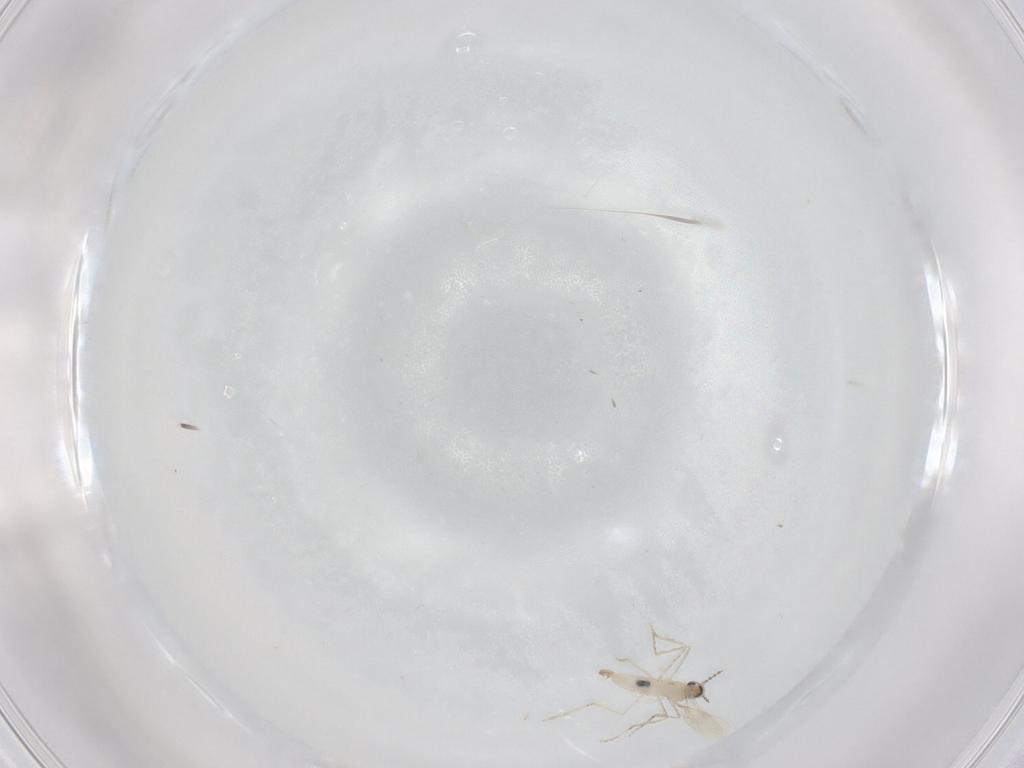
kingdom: Animalia
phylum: Arthropoda
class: Insecta
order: Diptera
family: Cecidomyiidae
